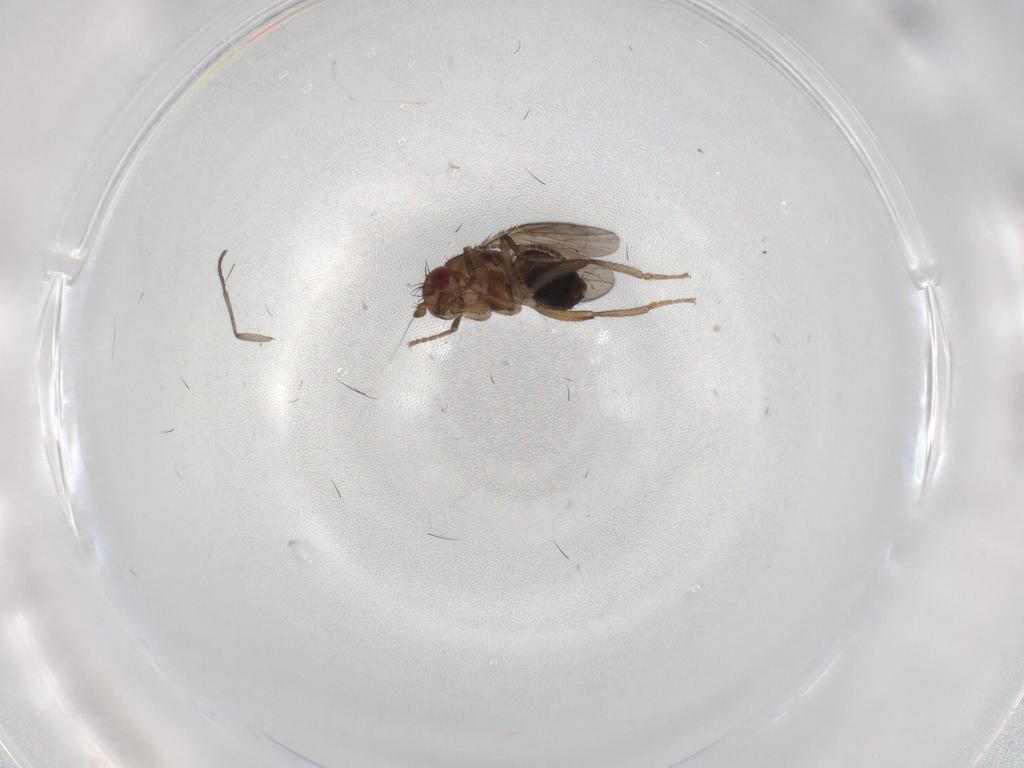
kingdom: Animalia
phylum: Arthropoda
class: Insecta
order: Diptera
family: Sphaeroceridae
